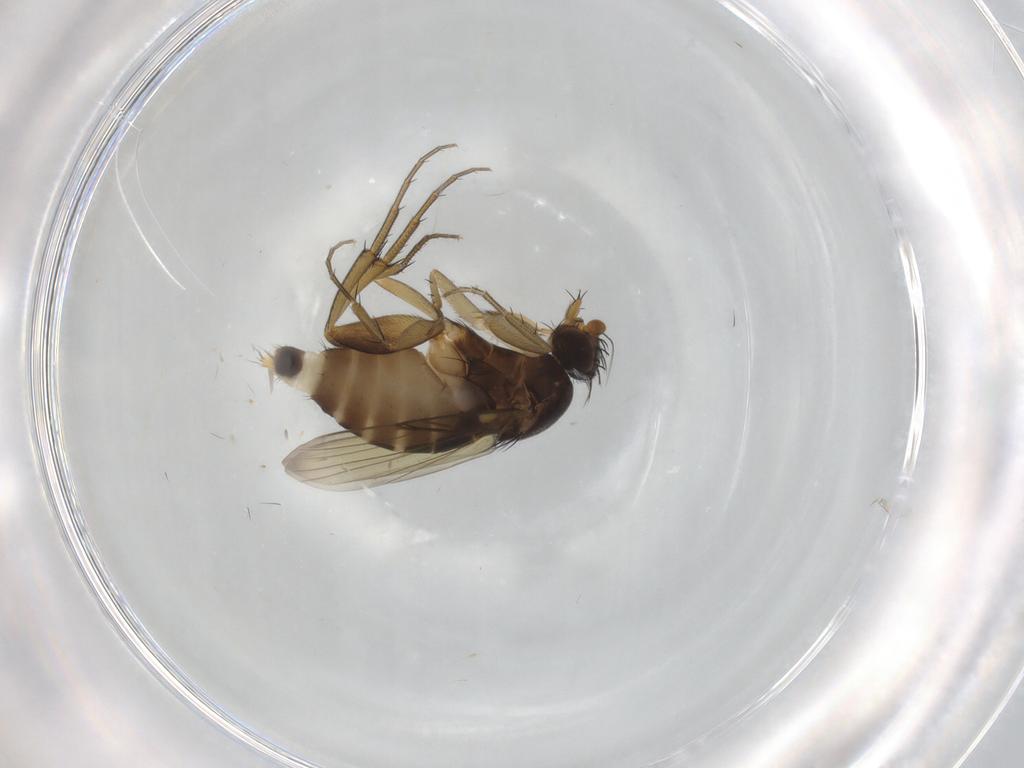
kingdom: Animalia
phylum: Arthropoda
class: Insecta
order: Diptera
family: Phoridae
